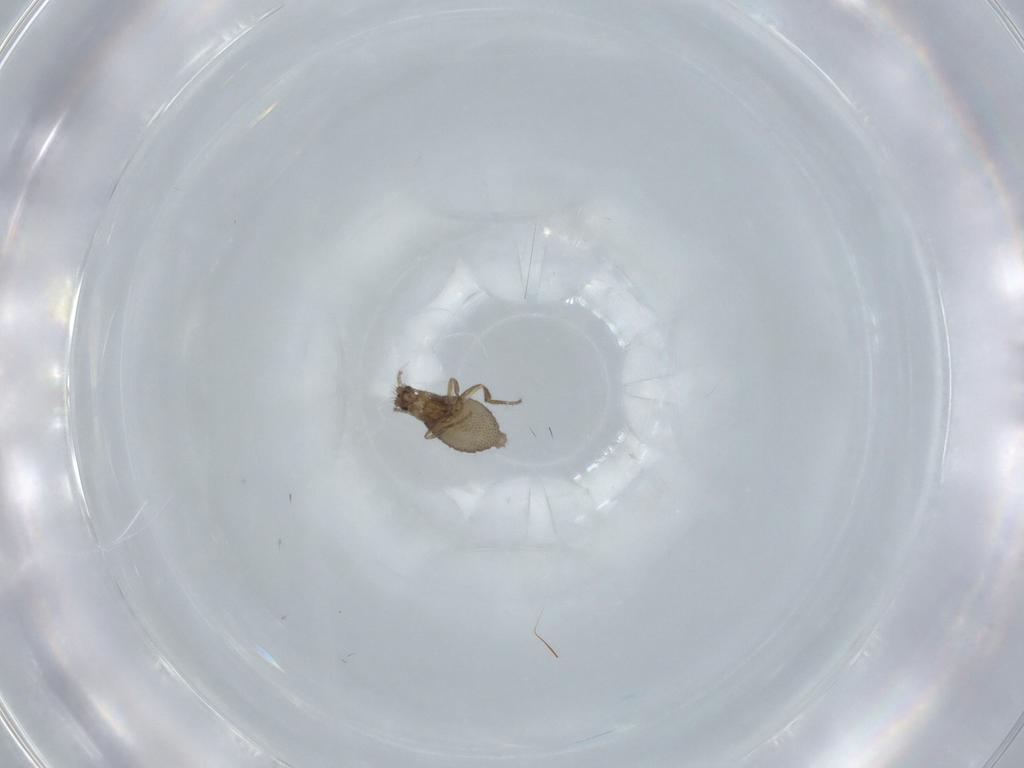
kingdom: Animalia
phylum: Arthropoda
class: Insecta
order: Diptera
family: Phoridae
